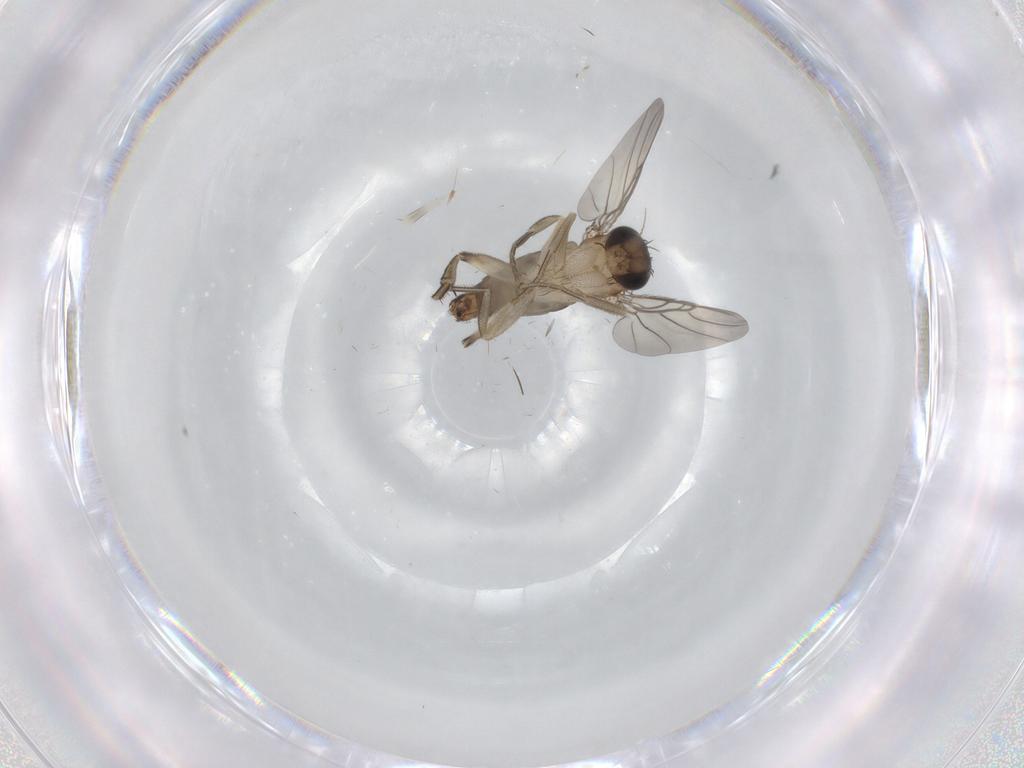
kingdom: Animalia
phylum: Arthropoda
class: Insecta
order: Diptera
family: Phoridae
